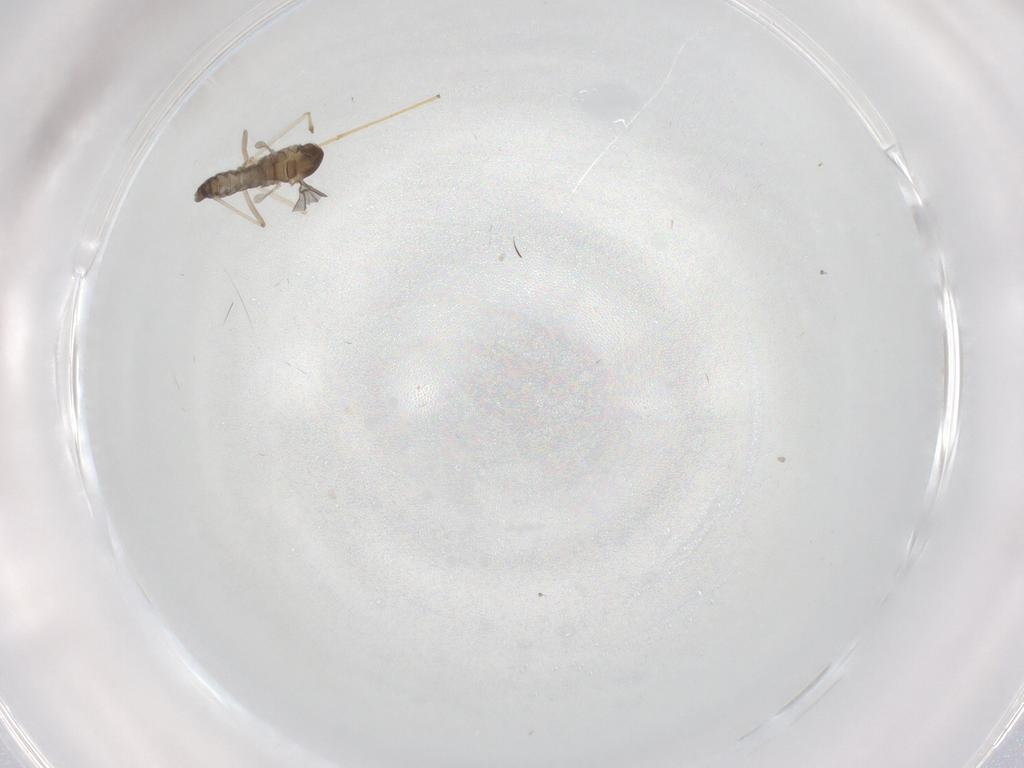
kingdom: Animalia
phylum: Arthropoda
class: Insecta
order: Diptera
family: Cecidomyiidae
